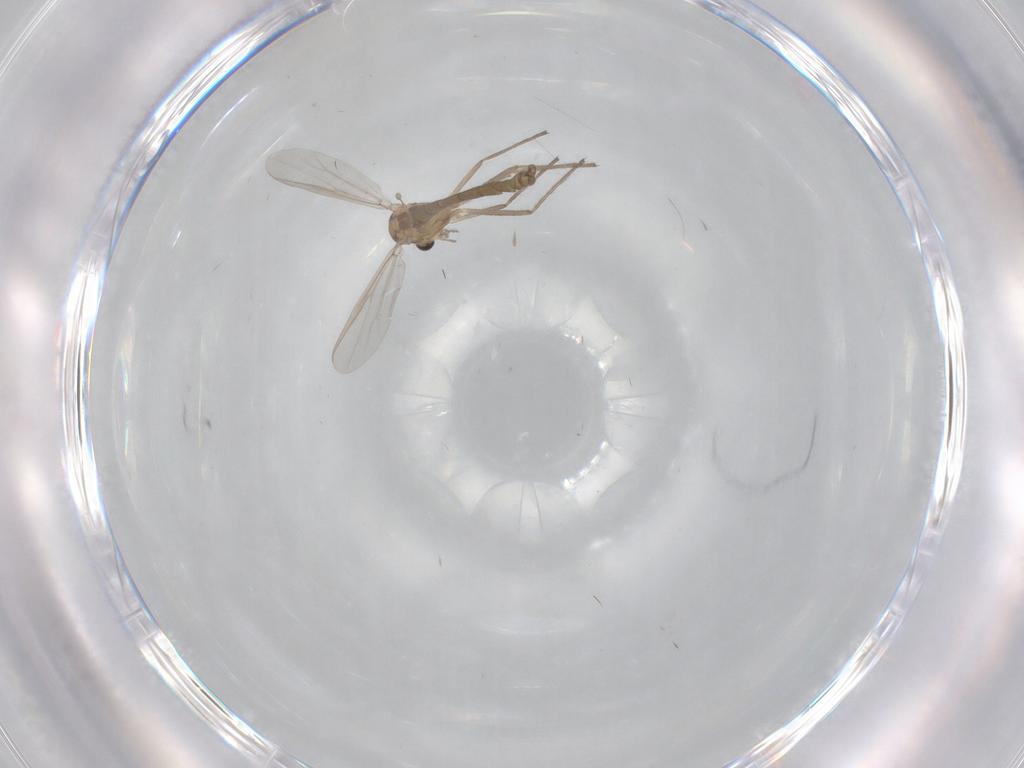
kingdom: Animalia
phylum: Arthropoda
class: Insecta
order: Diptera
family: Chironomidae
